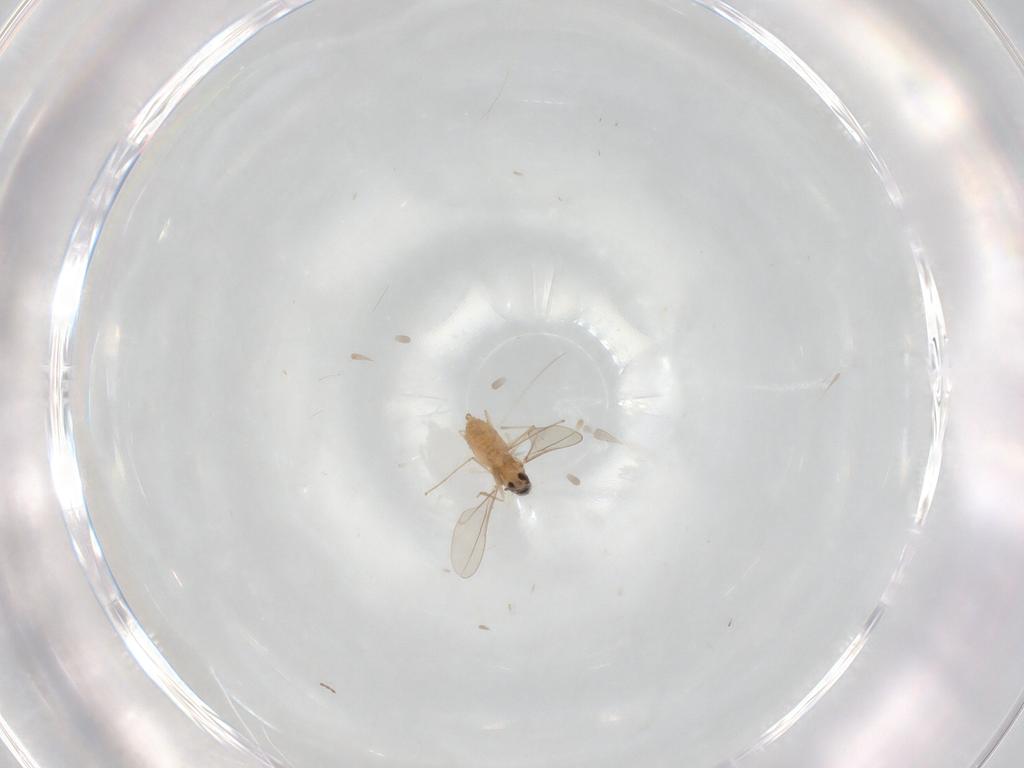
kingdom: Animalia
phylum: Arthropoda
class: Insecta
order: Diptera
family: Cecidomyiidae
